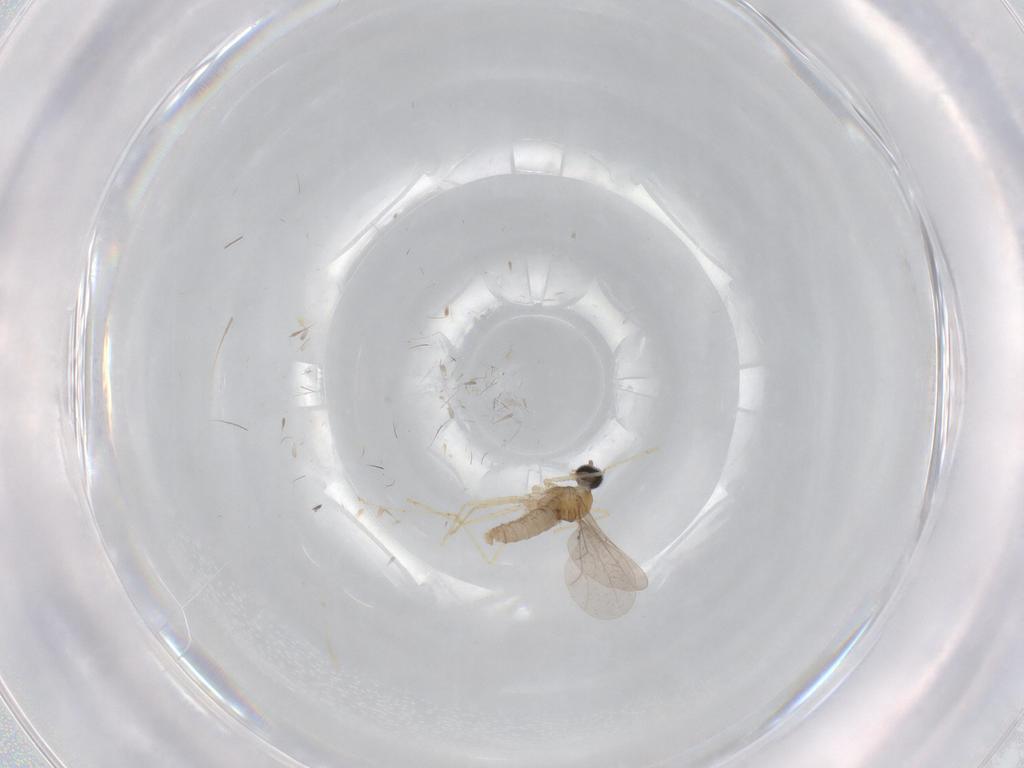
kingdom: Animalia
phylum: Arthropoda
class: Insecta
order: Diptera
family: Cecidomyiidae
